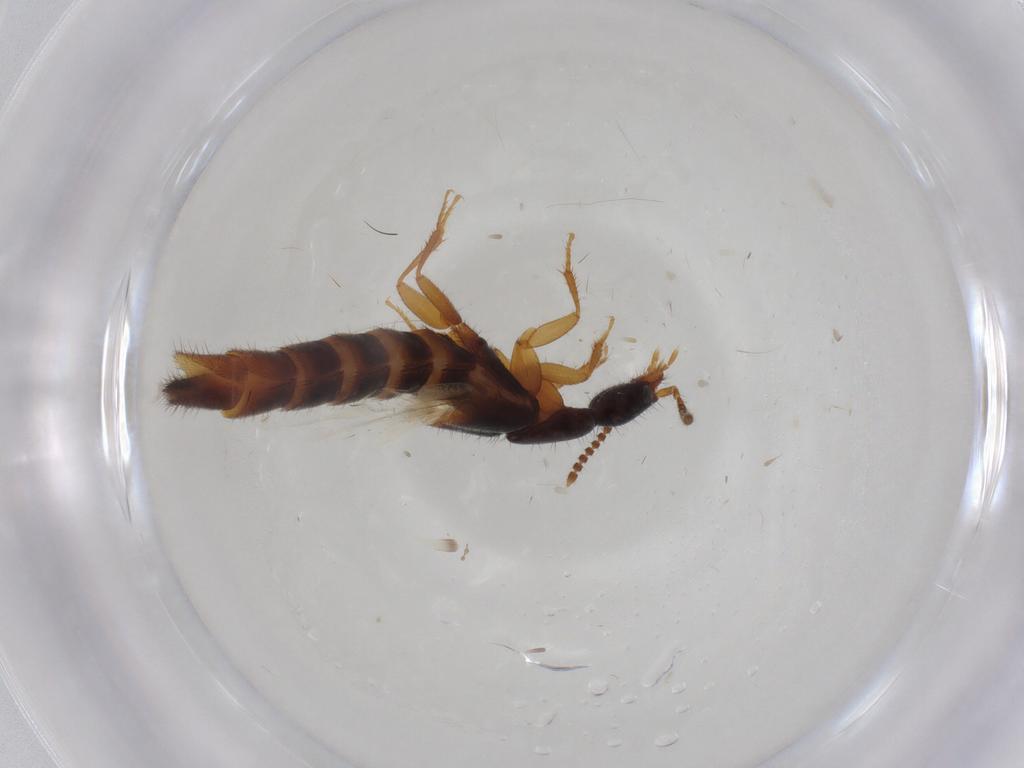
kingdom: Animalia
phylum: Arthropoda
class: Insecta
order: Coleoptera
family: Staphylinidae
